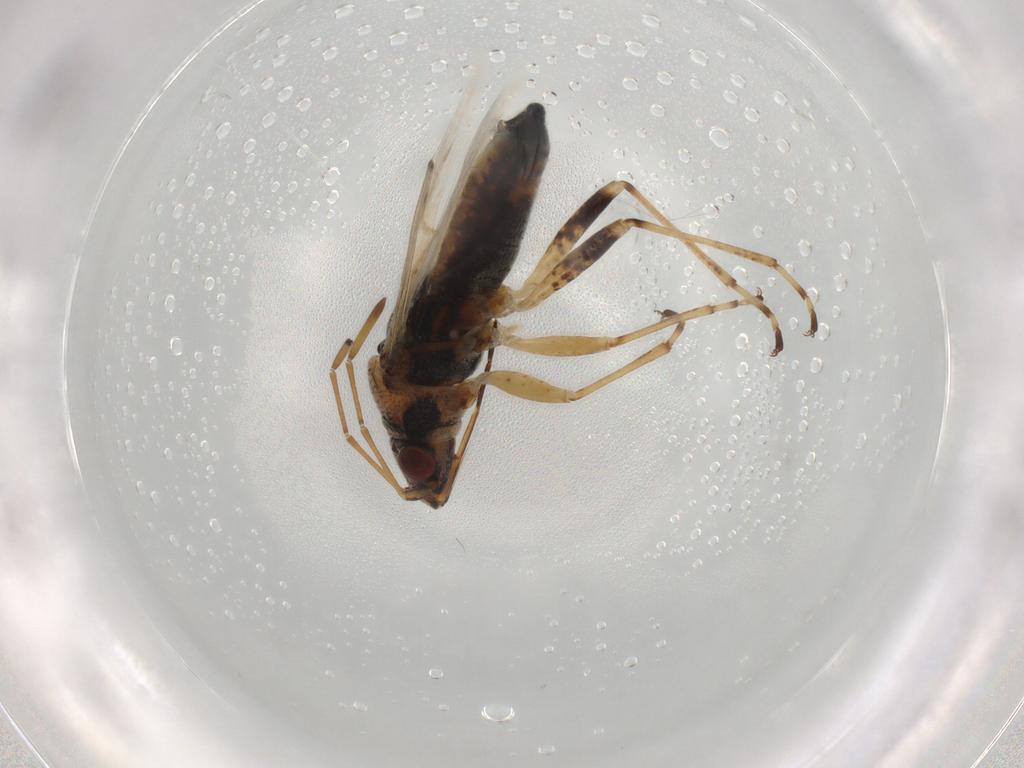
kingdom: Animalia
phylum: Arthropoda
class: Insecta
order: Hemiptera
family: Lygaeidae
